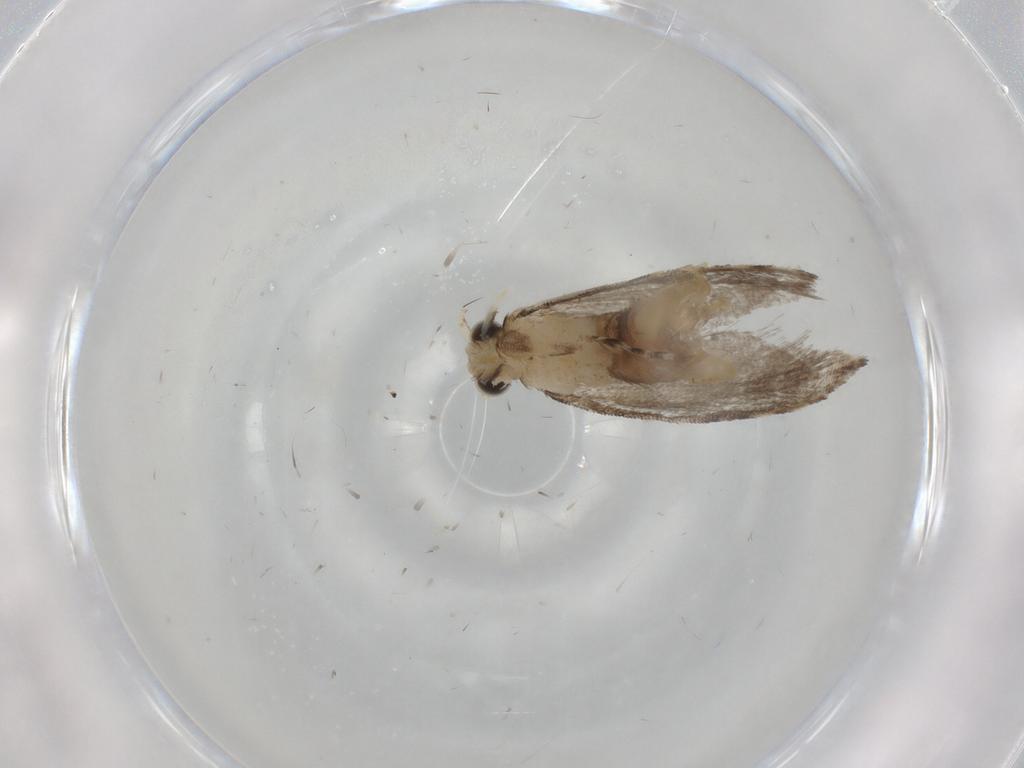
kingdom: Animalia
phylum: Arthropoda
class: Insecta
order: Lepidoptera
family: Tineidae
